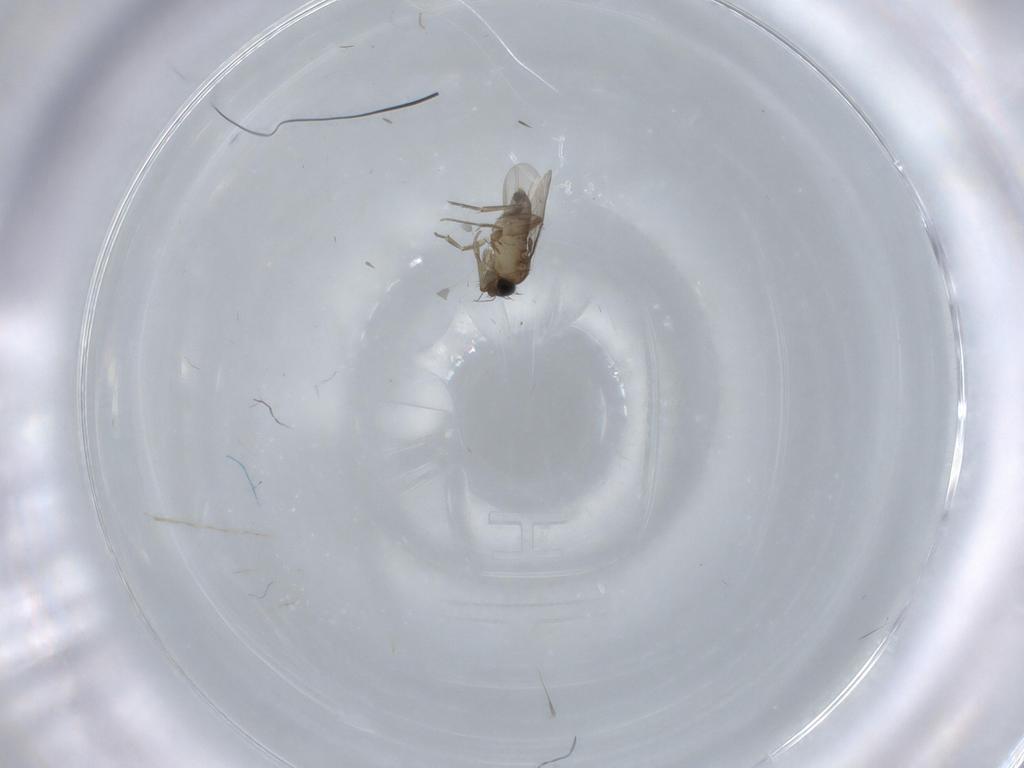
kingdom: Animalia
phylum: Arthropoda
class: Insecta
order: Diptera
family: Phoridae
